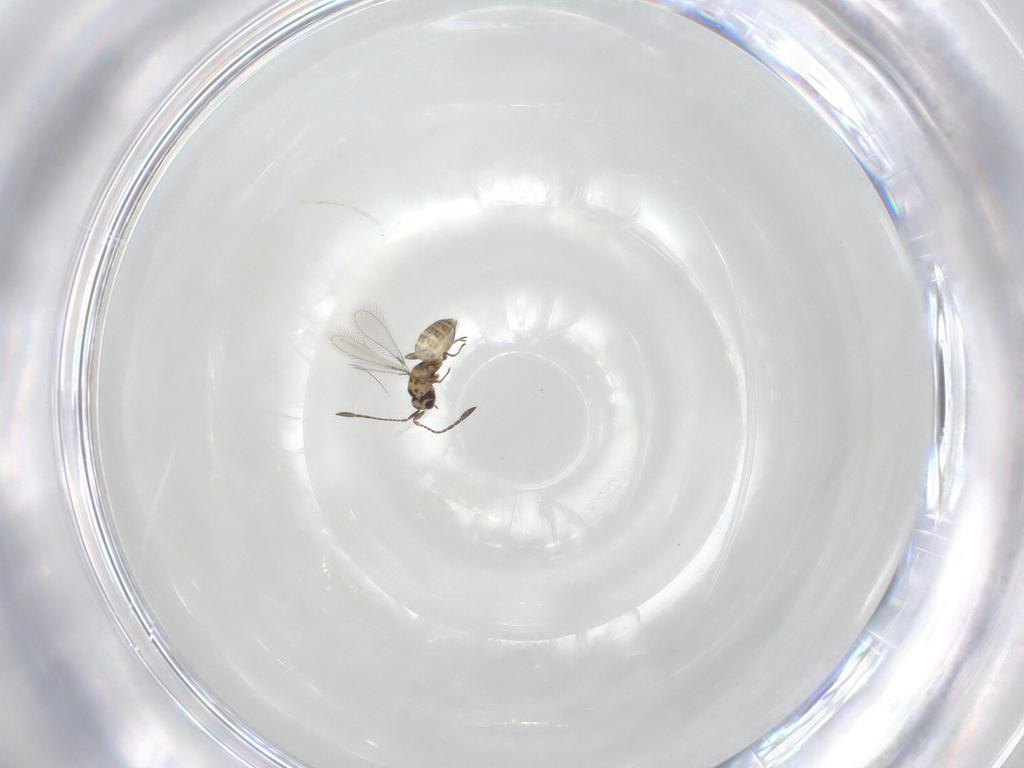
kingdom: Animalia
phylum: Arthropoda
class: Insecta
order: Hymenoptera
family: Mymaridae
